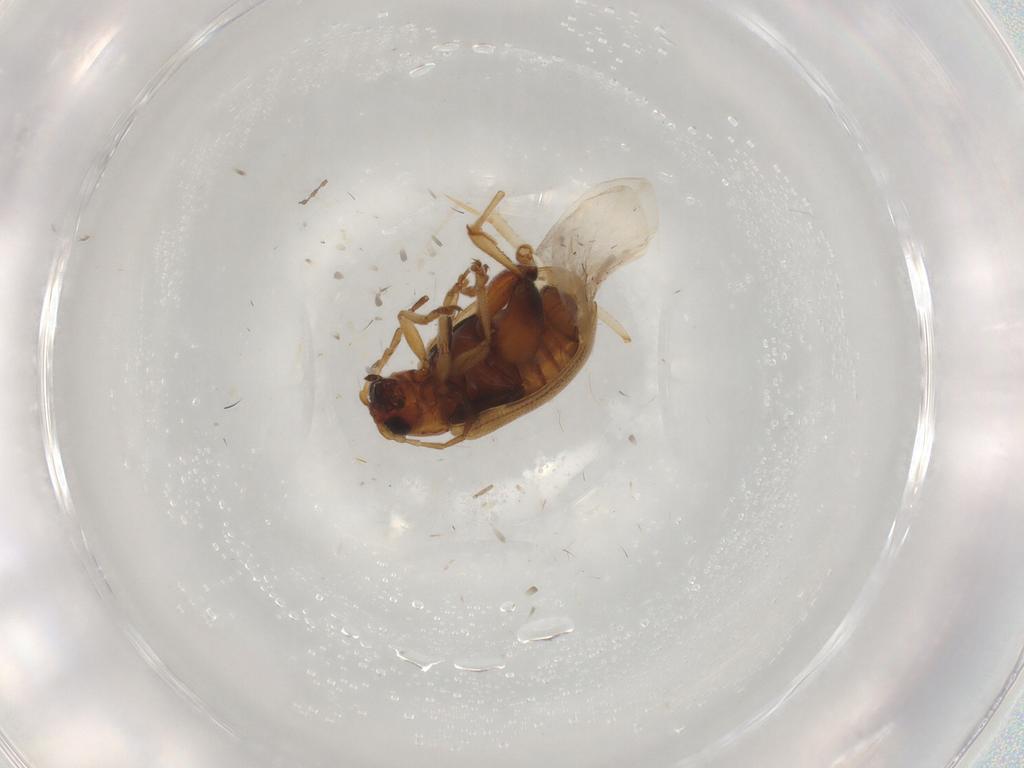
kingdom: Animalia
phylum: Arthropoda
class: Insecta
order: Coleoptera
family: Chrysomelidae
